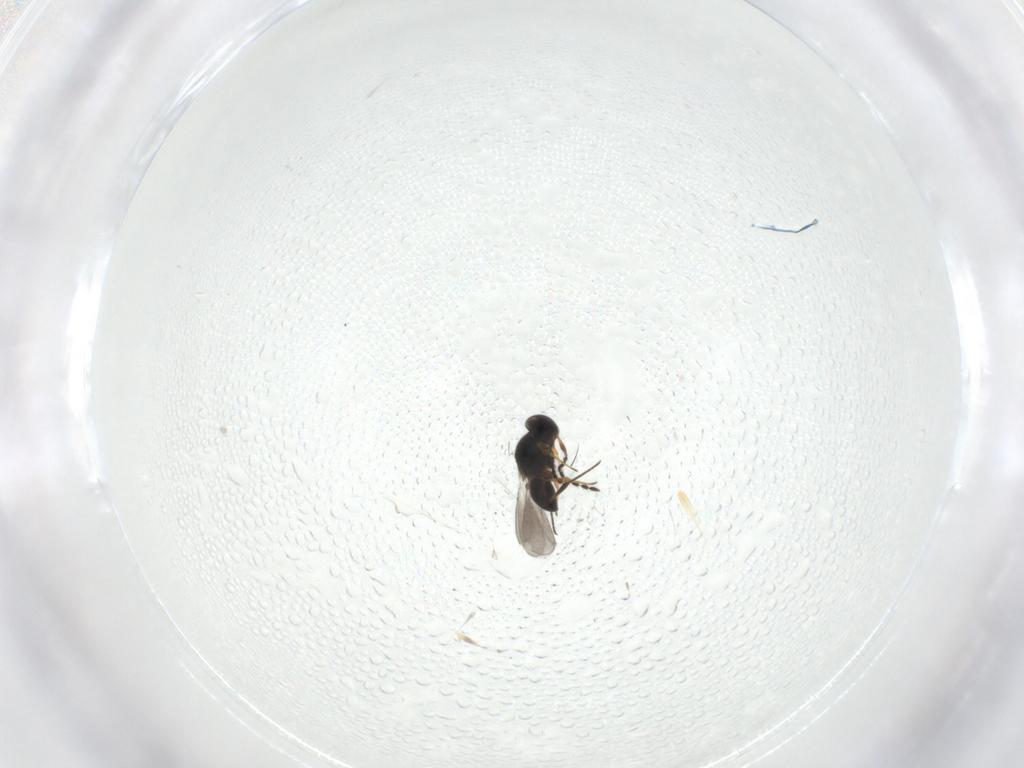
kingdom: Animalia
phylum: Arthropoda
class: Insecta
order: Hymenoptera
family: Platygastridae
